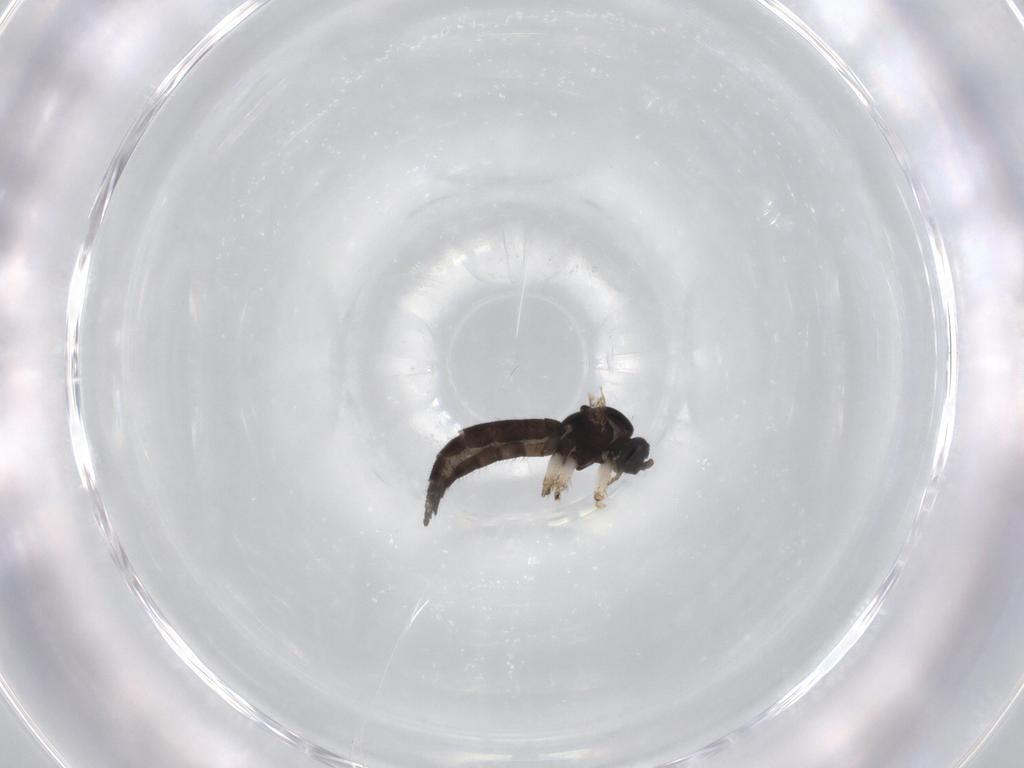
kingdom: Animalia
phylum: Arthropoda
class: Insecta
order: Diptera
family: Sciaridae
